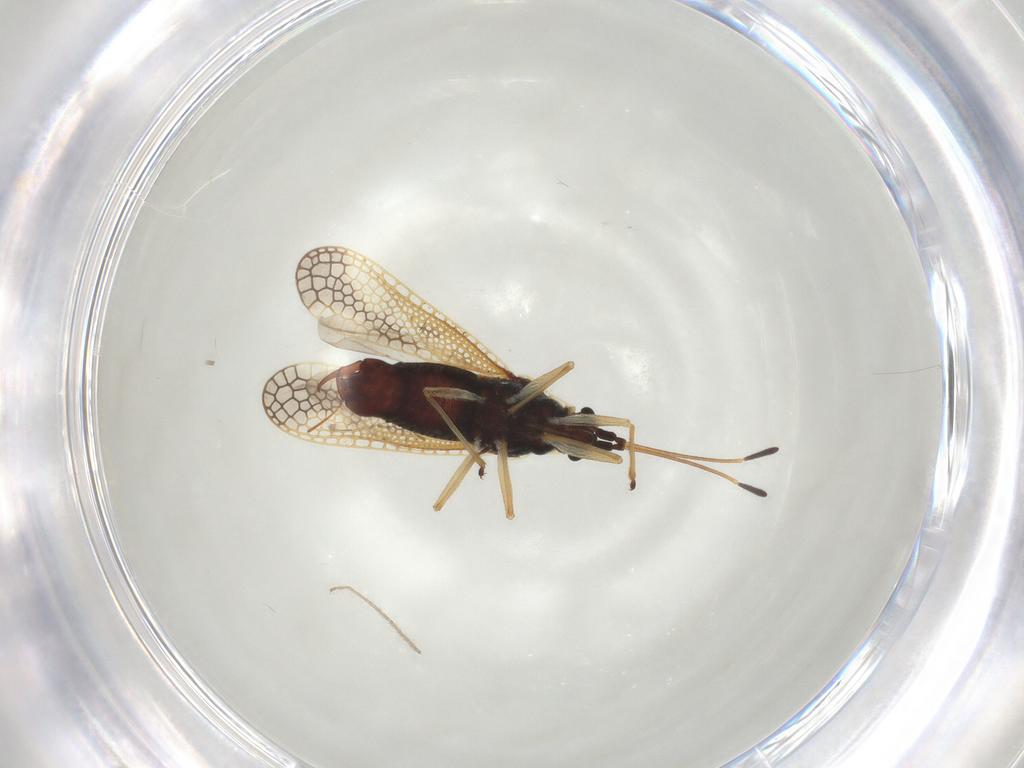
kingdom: Animalia
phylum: Arthropoda
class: Insecta
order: Hemiptera
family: Tingidae
